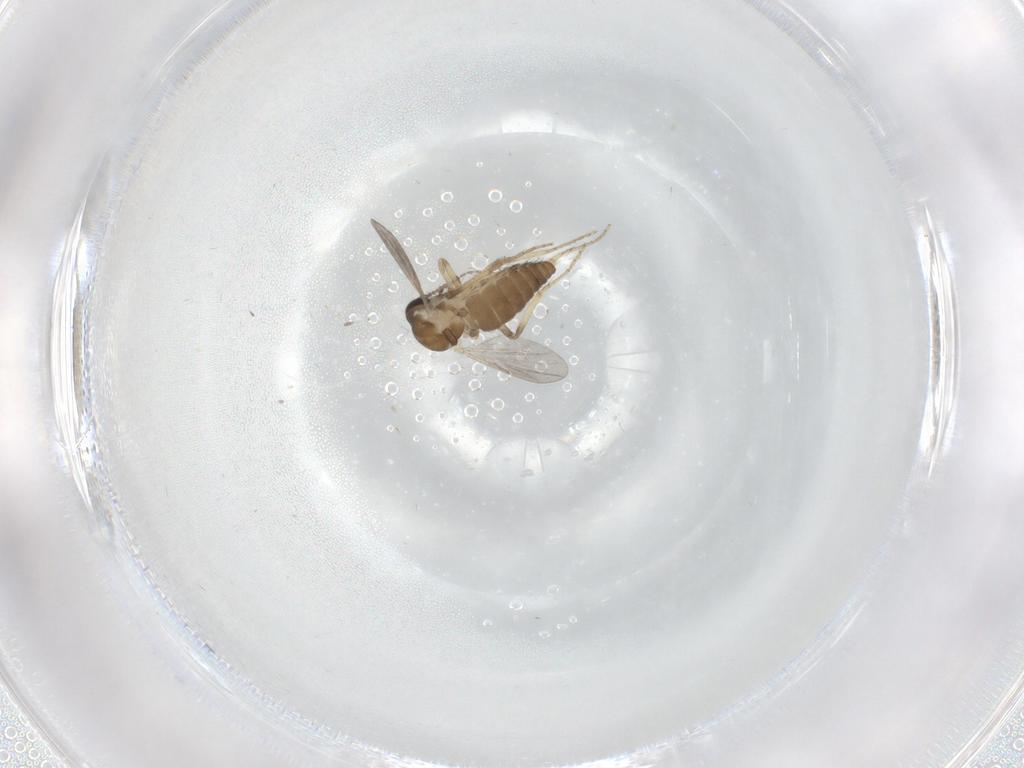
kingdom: Animalia
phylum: Arthropoda
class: Insecta
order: Diptera
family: Ceratopogonidae
